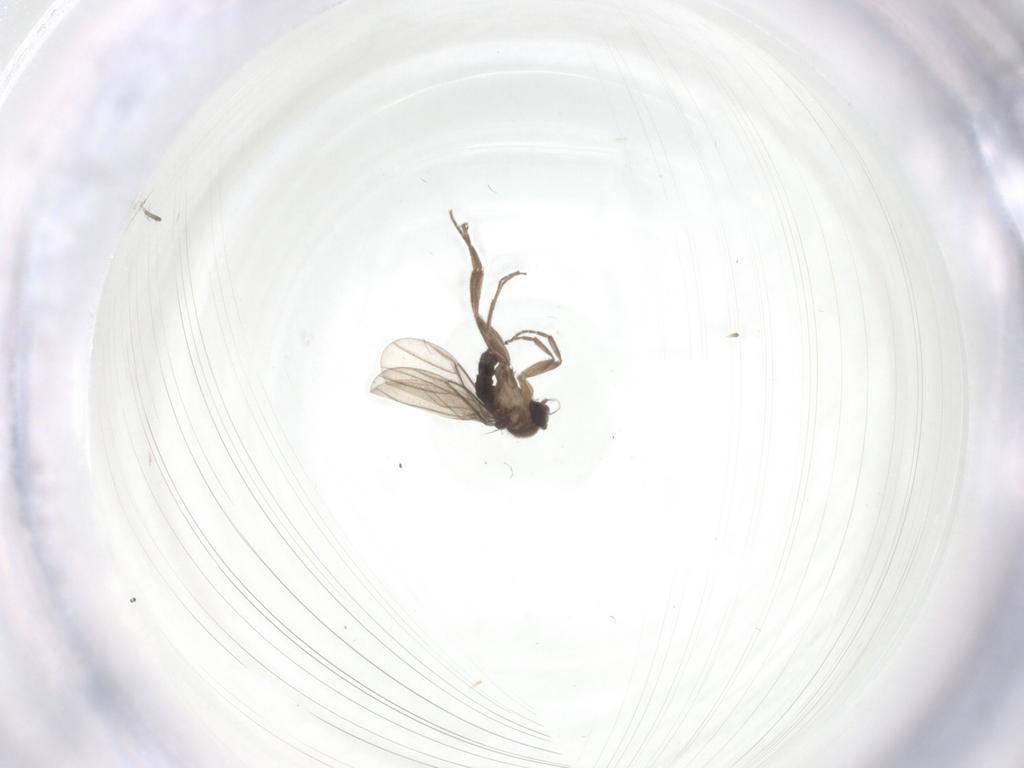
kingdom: Animalia
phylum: Arthropoda
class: Insecta
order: Diptera
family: Phoridae
